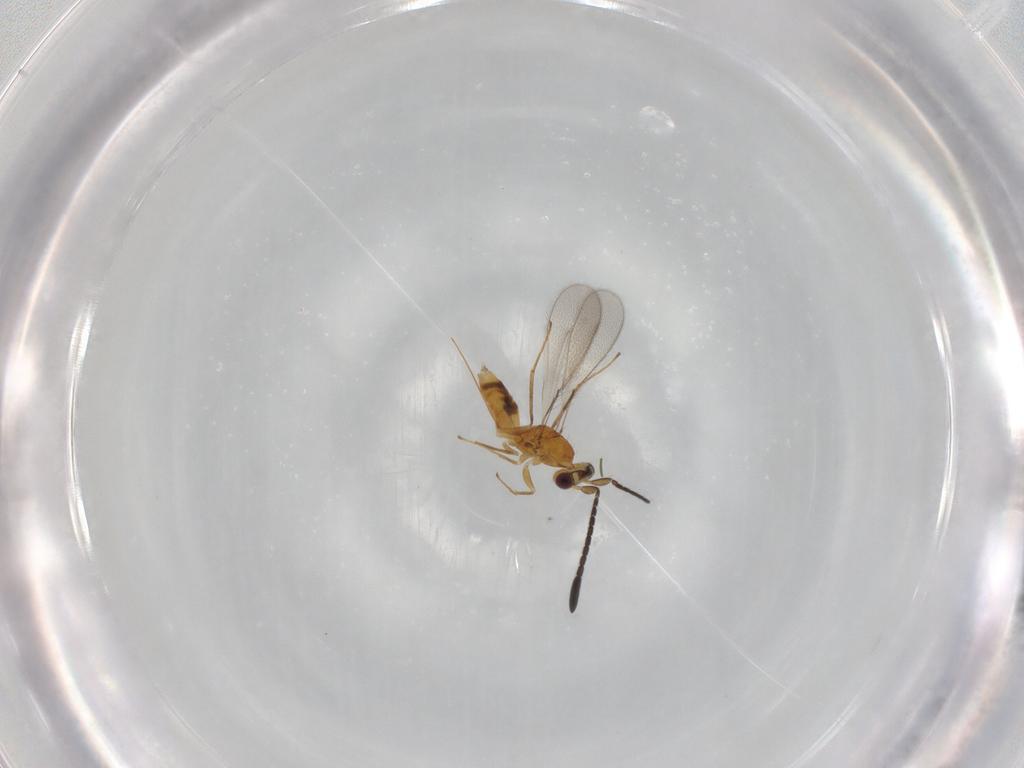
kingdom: Animalia
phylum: Arthropoda
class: Insecta
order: Hymenoptera
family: Mymaridae
